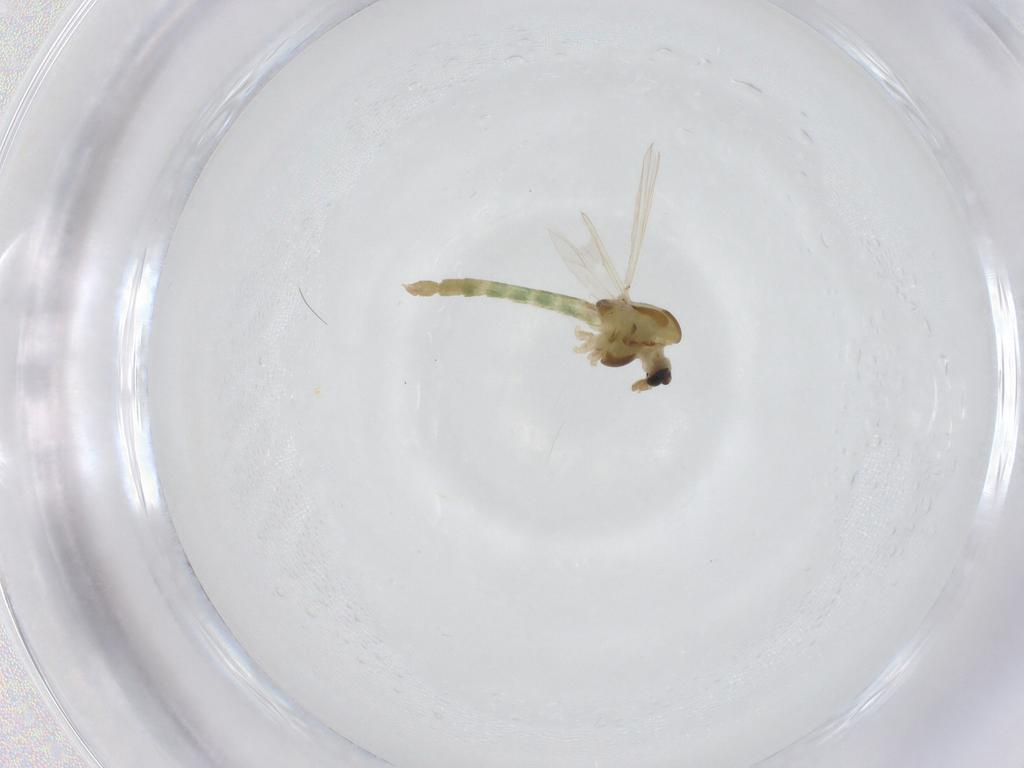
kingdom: Animalia
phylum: Arthropoda
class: Insecta
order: Diptera
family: Chironomidae
